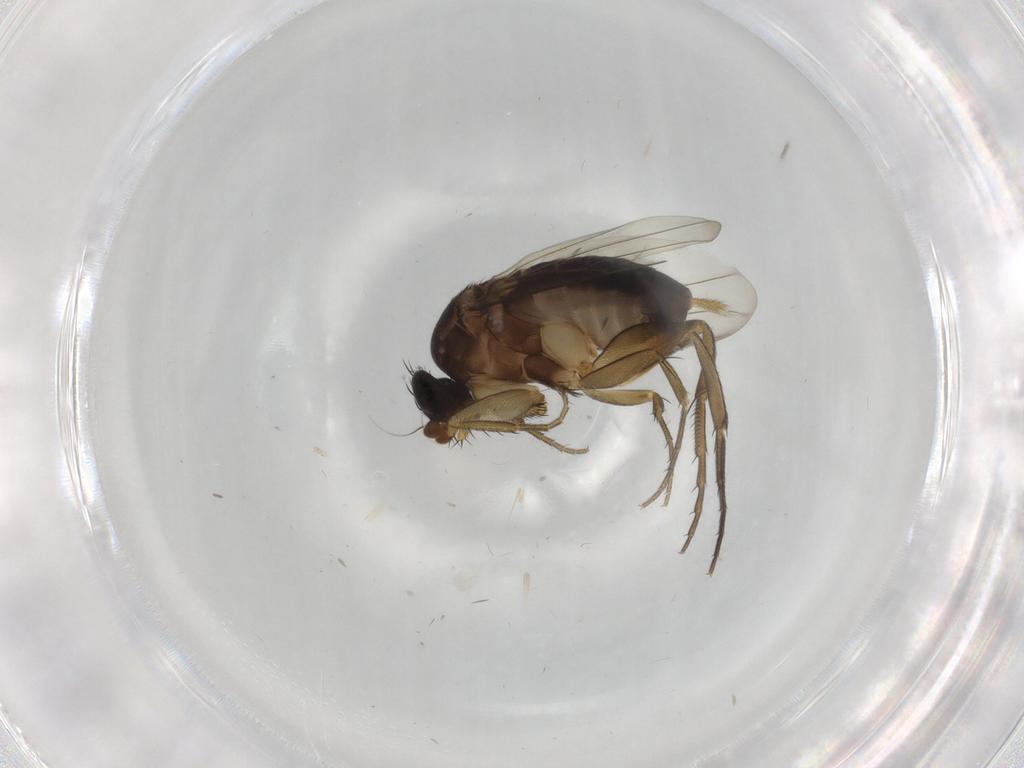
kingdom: Animalia
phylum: Arthropoda
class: Insecta
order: Diptera
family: Phoridae
